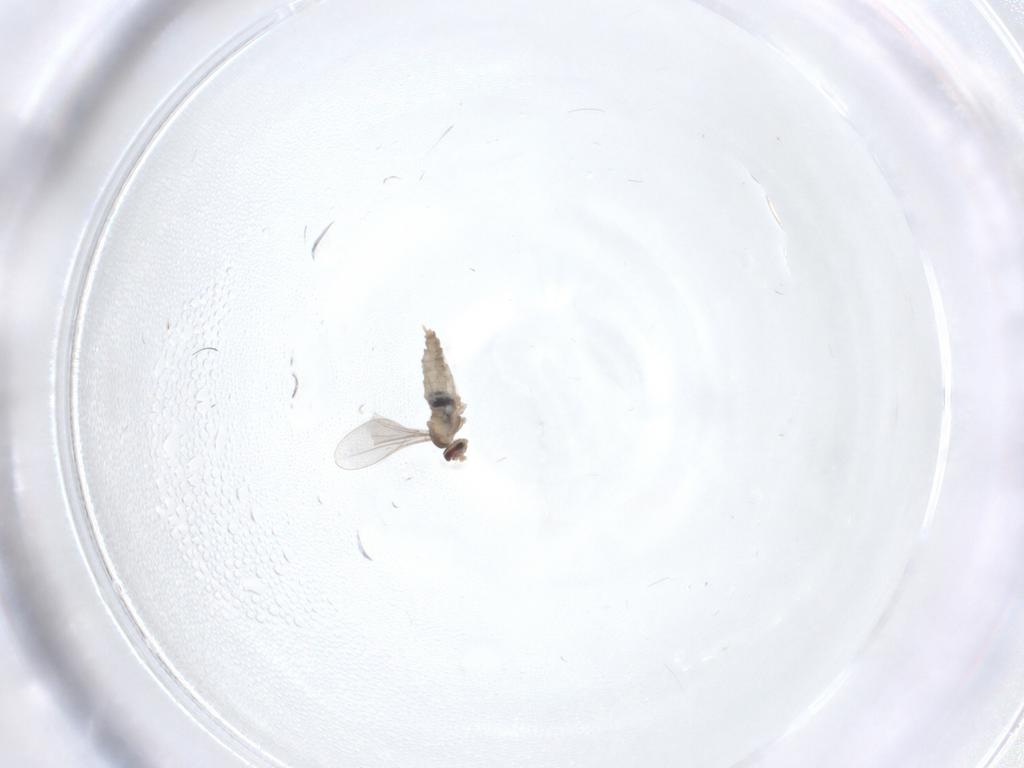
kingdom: Animalia
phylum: Arthropoda
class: Insecta
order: Diptera
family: Cecidomyiidae
